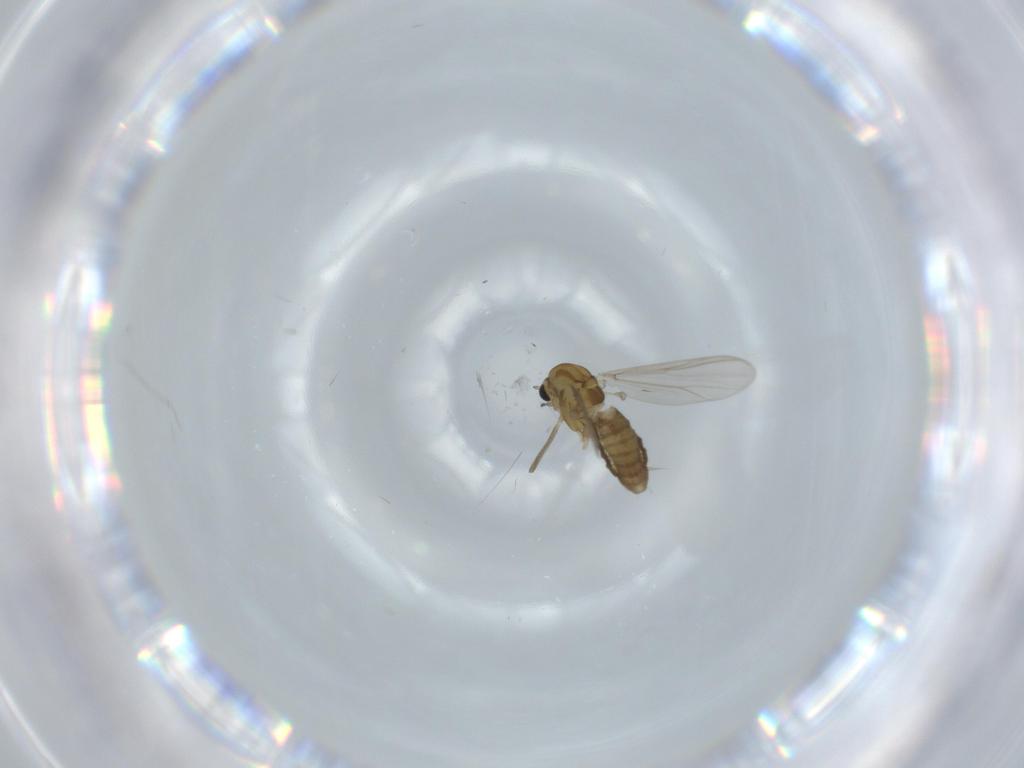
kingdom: Animalia
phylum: Arthropoda
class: Insecta
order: Diptera
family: Chironomidae
